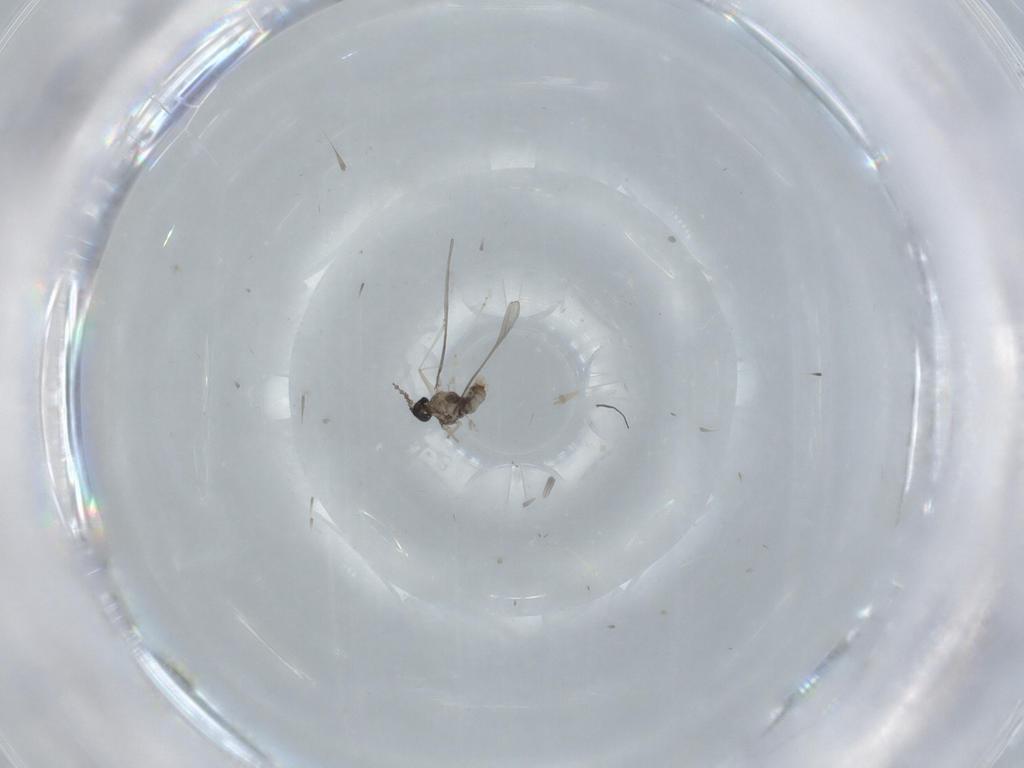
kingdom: Animalia
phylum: Arthropoda
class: Insecta
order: Diptera
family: Cecidomyiidae
